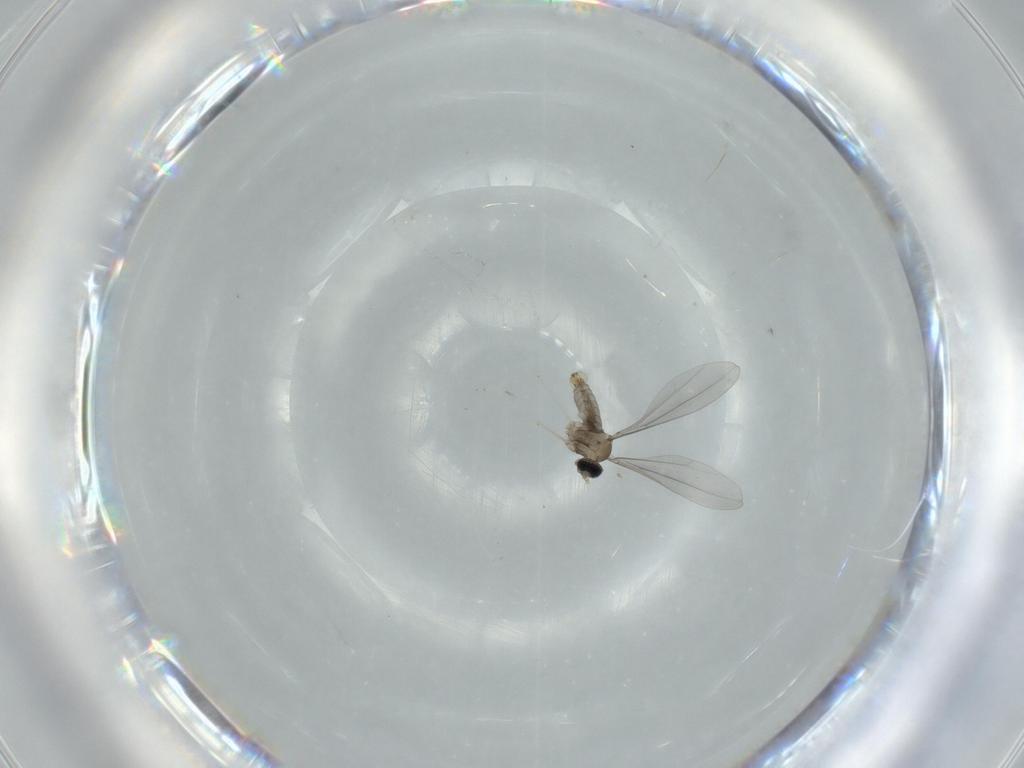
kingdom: Animalia
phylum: Arthropoda
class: Insecta
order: Diptera
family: Cecidomyiidae
